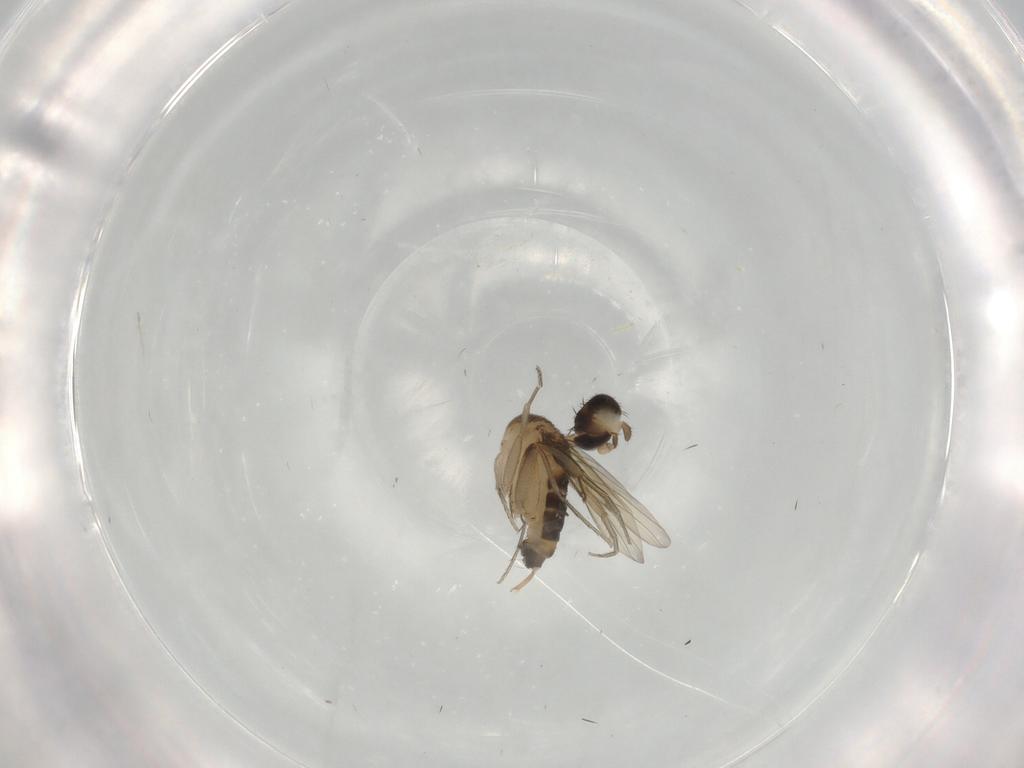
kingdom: Animalia
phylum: Arthropoda
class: Insecta
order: Diptera
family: Phoridae
